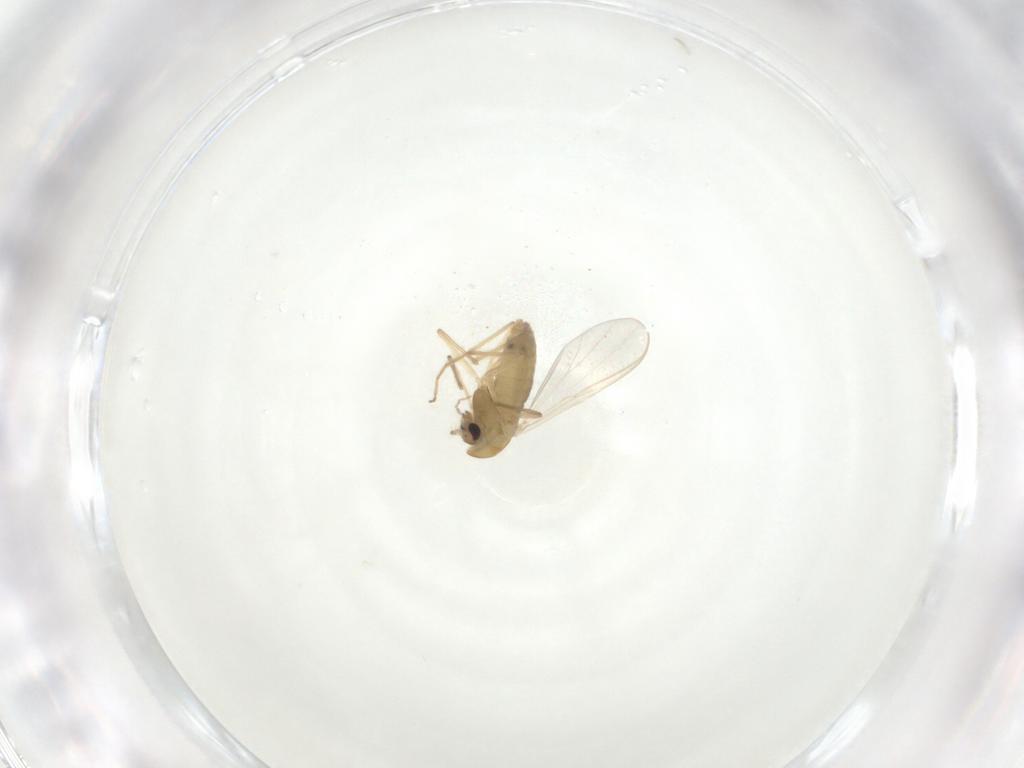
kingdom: Animalia
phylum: Arthropoda
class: Insecta
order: Diptera
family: Chironomidae
